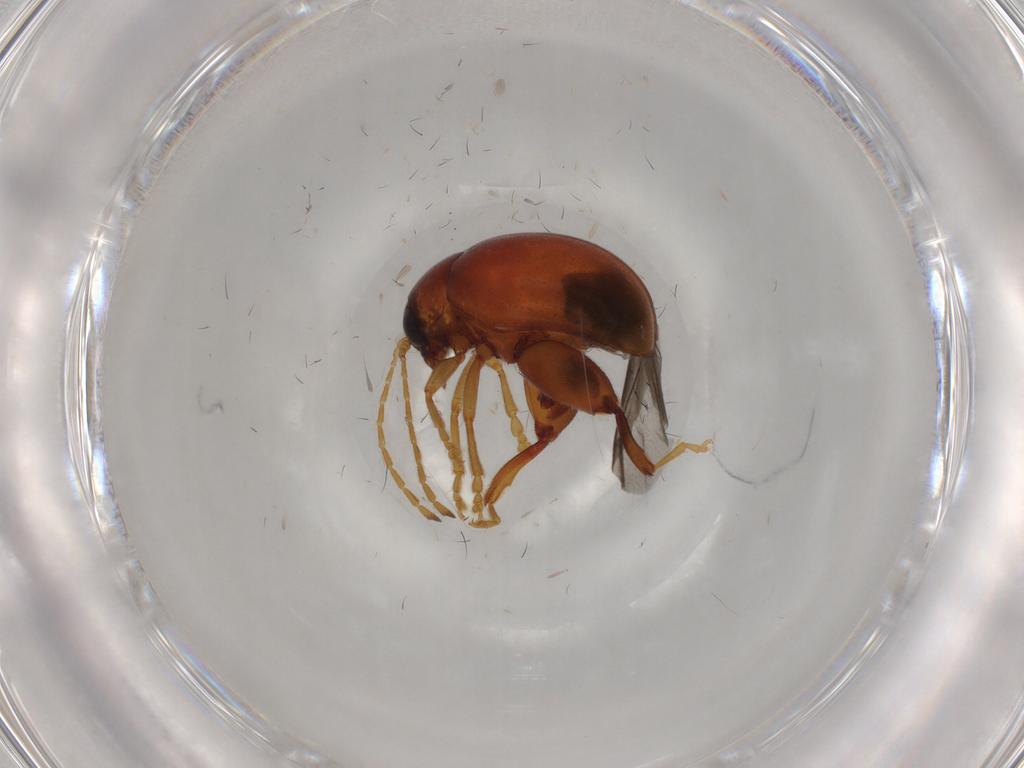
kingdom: Animalia
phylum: Arthropoda
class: Insecta
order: Coleoptera
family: Chrysomelidae
